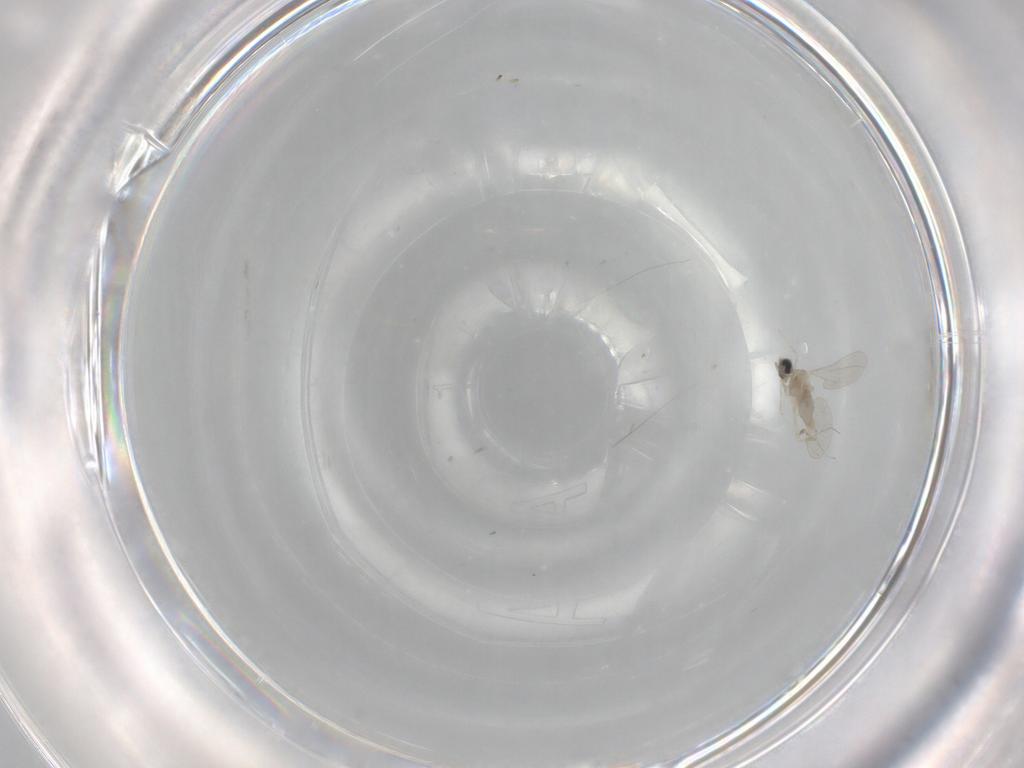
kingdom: Animalia
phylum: Arthropoda
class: Insecta
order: Diptera
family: Cecidomyiidae
